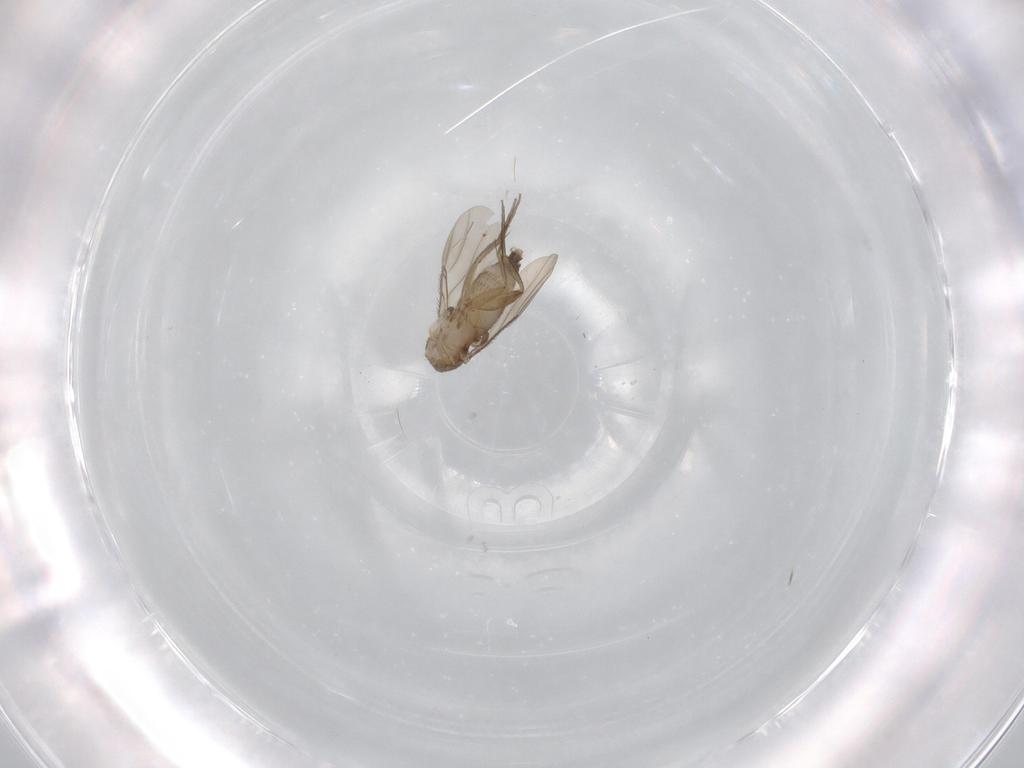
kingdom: Animalia
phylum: Arthropoda
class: Insecta
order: Diptera
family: Phoridae
